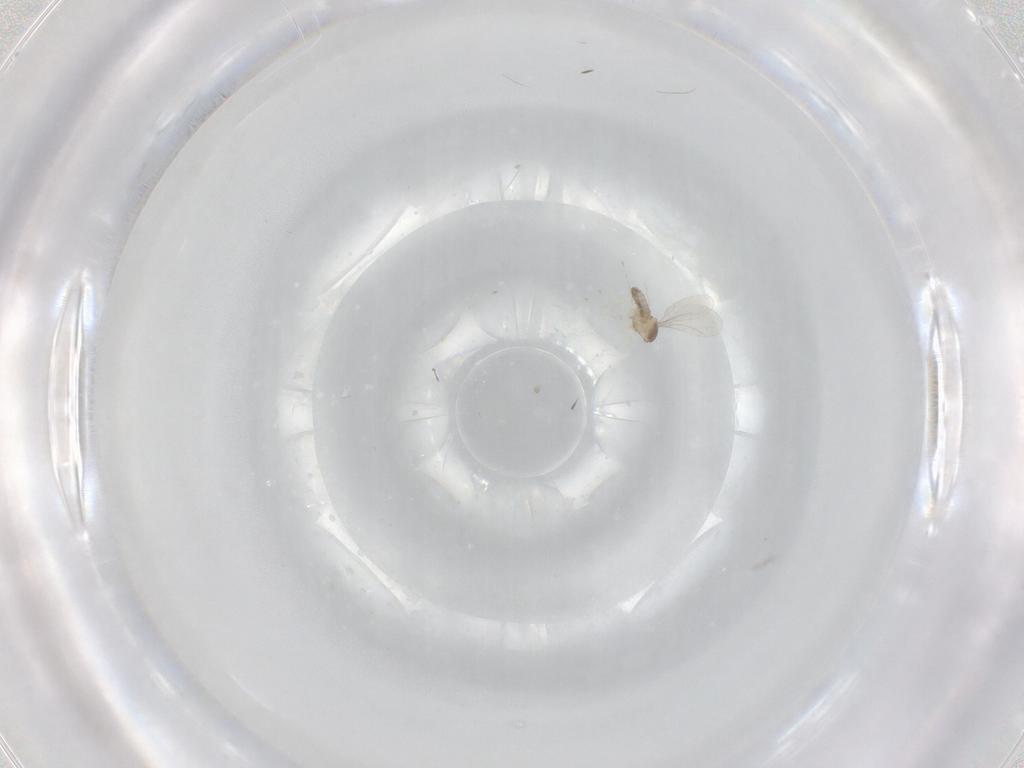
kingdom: Animalia
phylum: Arthropoda
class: Insecta
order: Diptera
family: Cecidomyiidae
